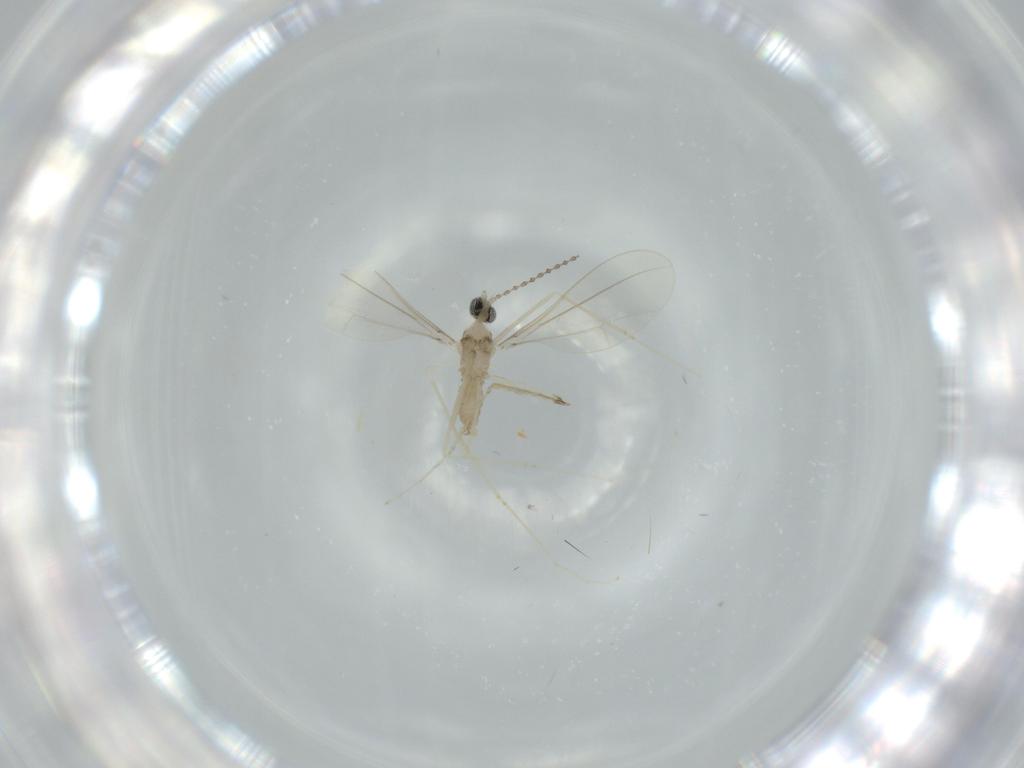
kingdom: Animalia
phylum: Arthropoda
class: Insecta
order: Diptera
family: Cecidomyiidae
